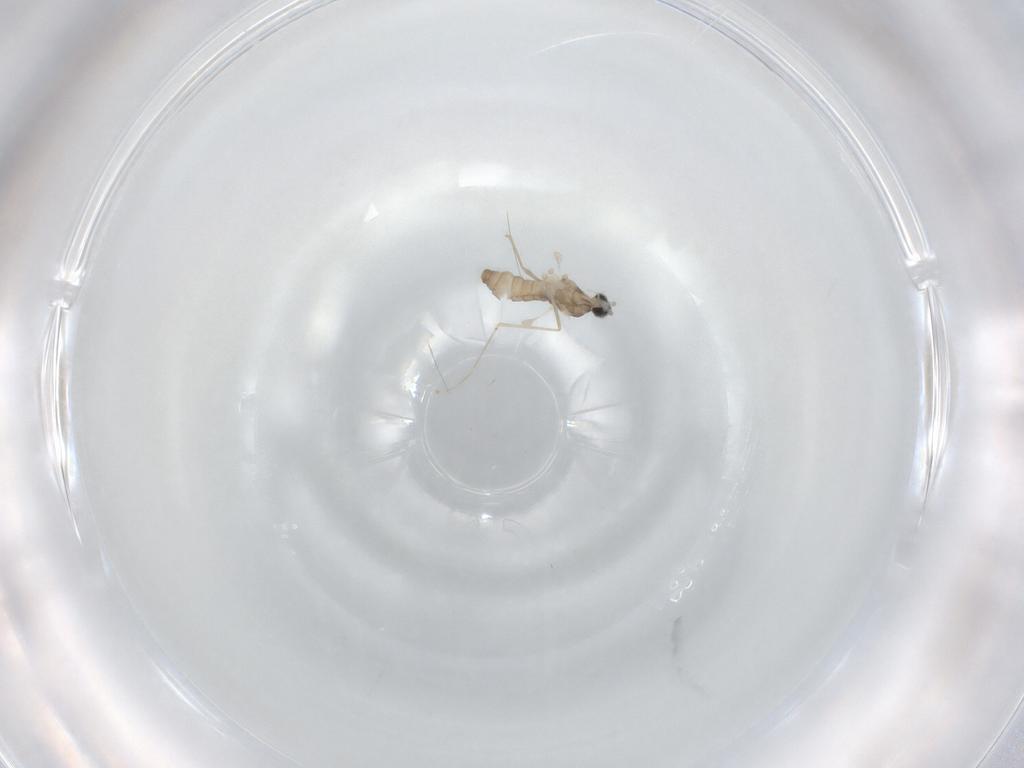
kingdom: Animalia
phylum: Arthropoda
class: Insecta
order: Diptera
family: Cecidomyiidae
